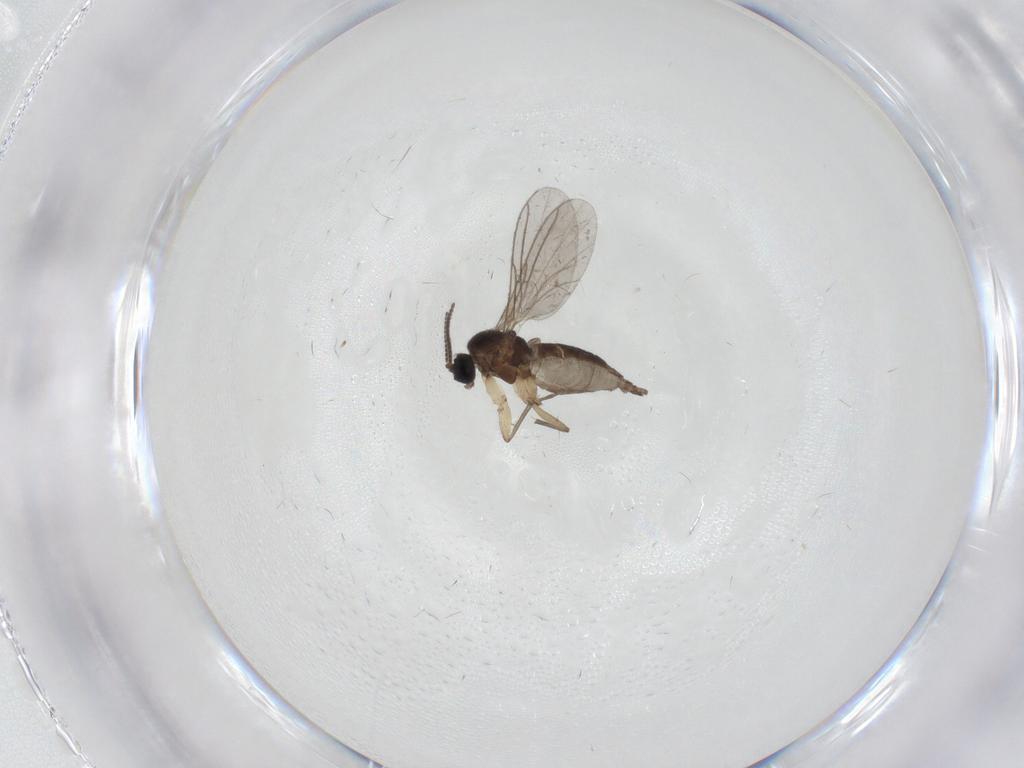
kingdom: Animalia
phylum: Arthropoda
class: Insecta
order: Diptera
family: Sciaridae
